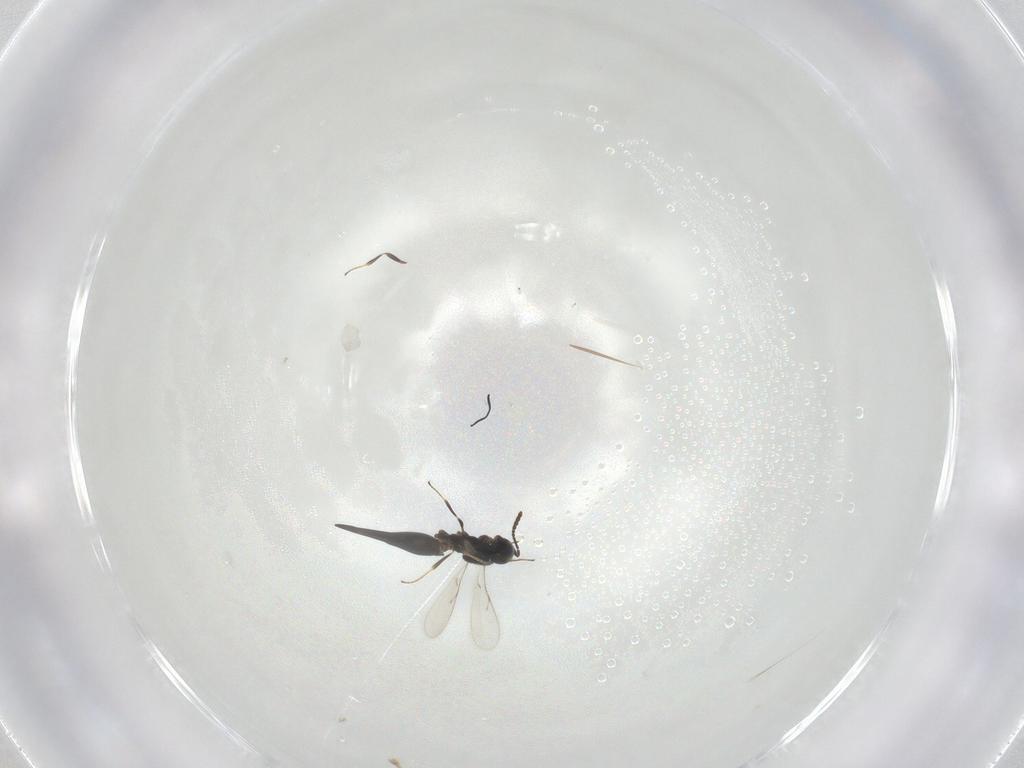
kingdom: Animalia
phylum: Arthropoda
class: Insecta
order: Hymenoptera
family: Scelionidae
